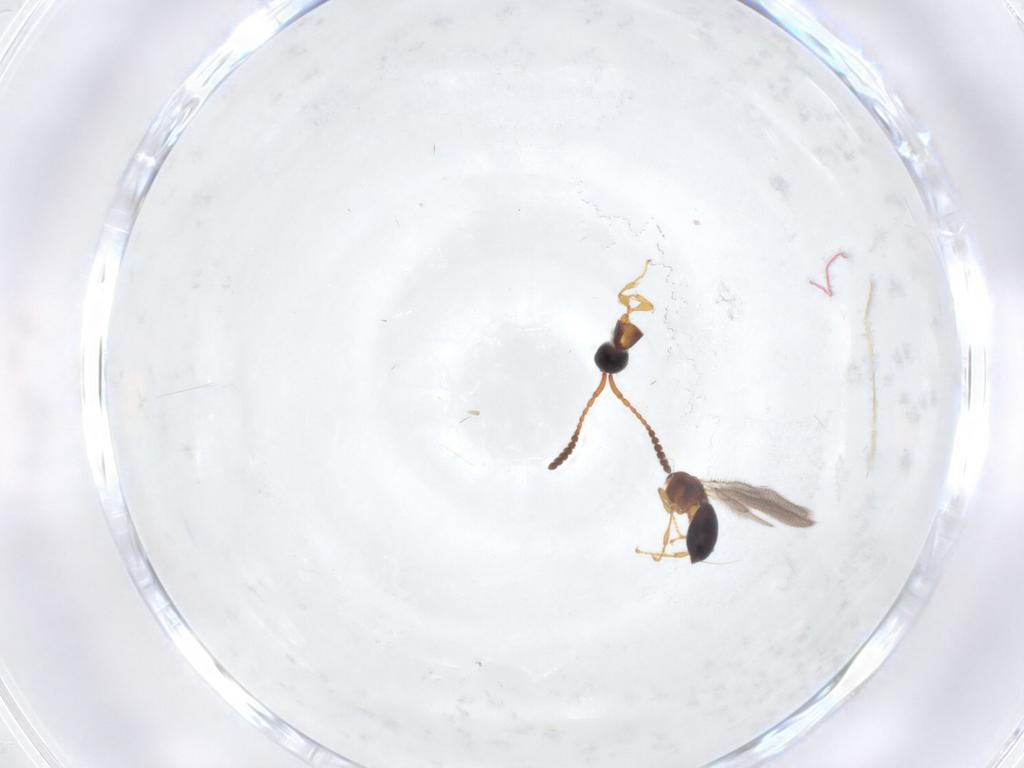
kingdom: Animalia
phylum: Arthropoda
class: Insecta
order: Hymenoptera
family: Diapriidae
